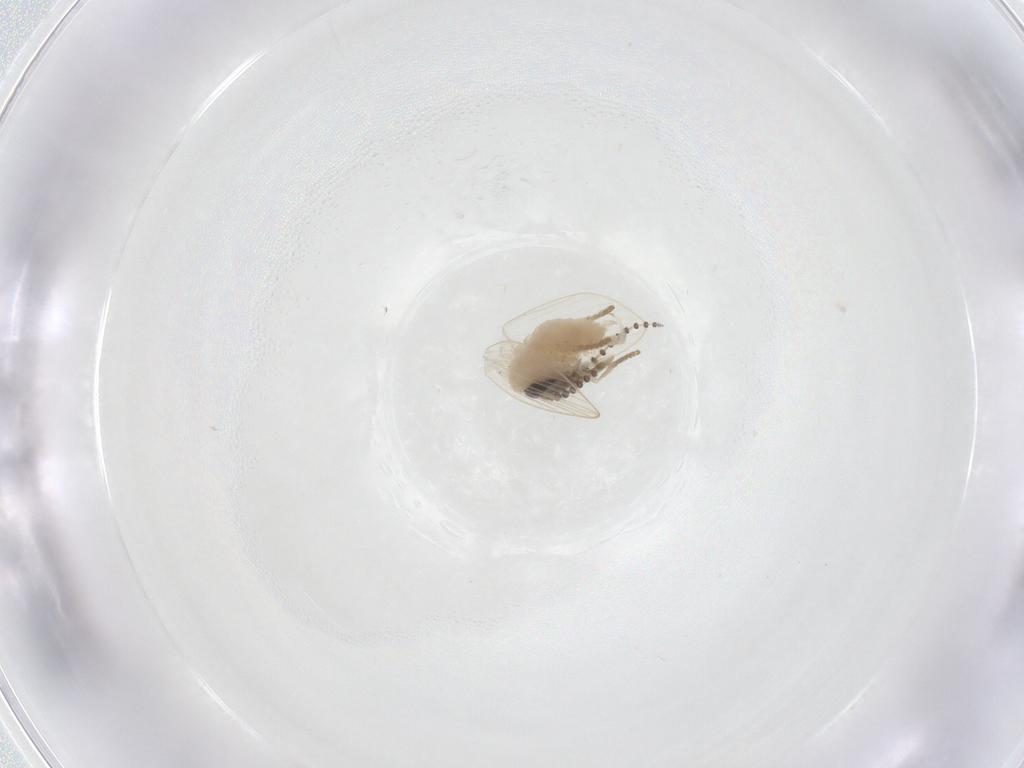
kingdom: Animalia
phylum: Arthropoda
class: Insecta
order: Diptera
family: Psychodidae
